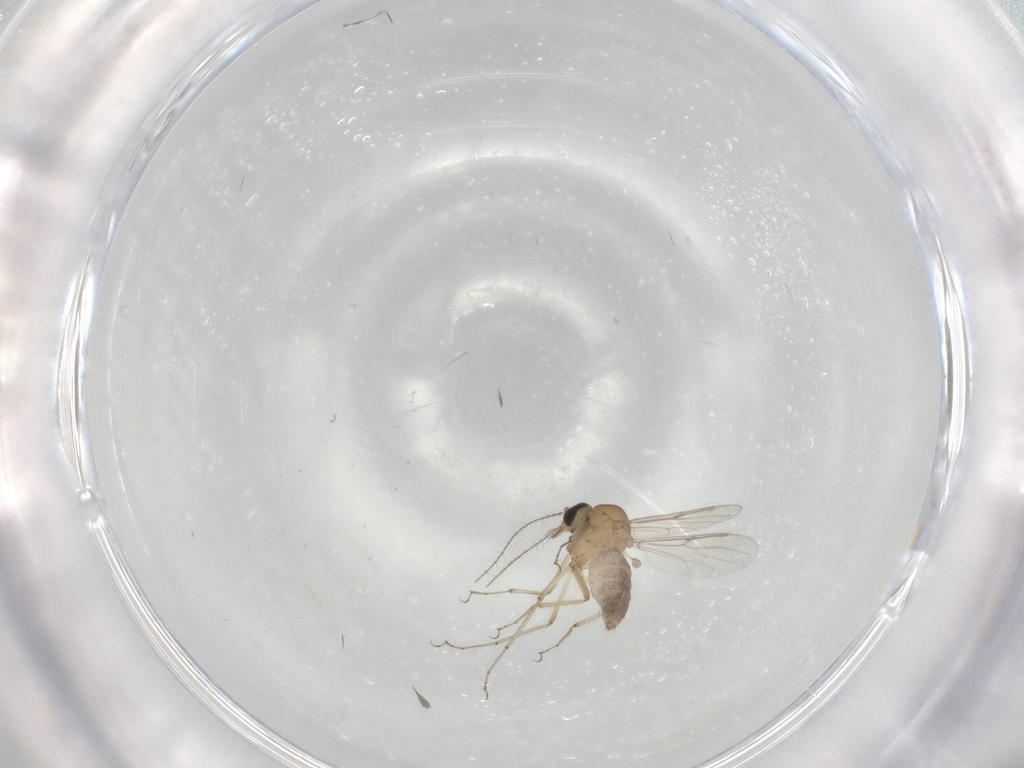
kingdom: Animalia
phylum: Arthropoda
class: Insecta
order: Diptera
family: Ceratopogonidae
